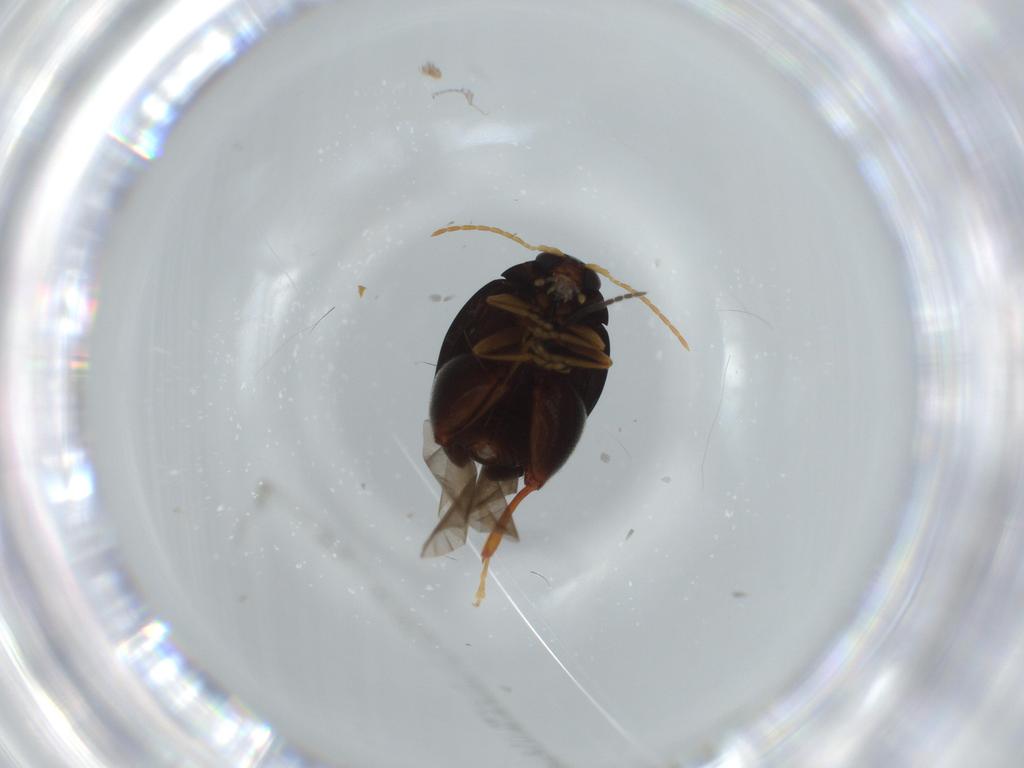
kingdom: Animalia
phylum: Arthropoda
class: Insecta
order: Coleoptera
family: Chrysomelidae
